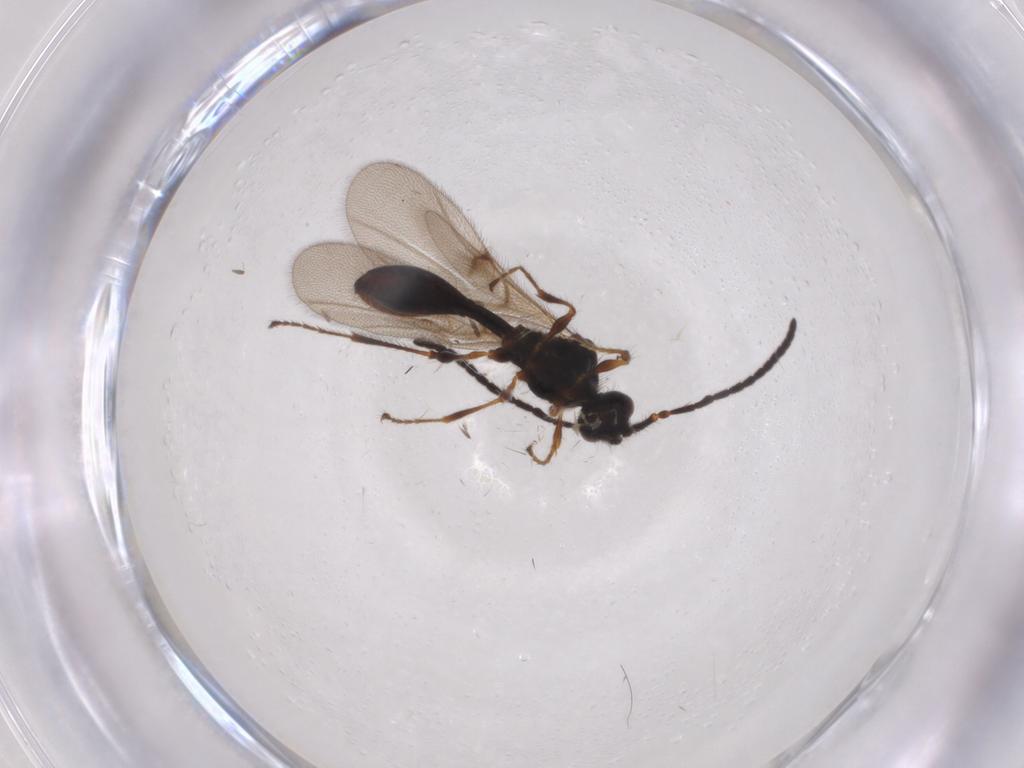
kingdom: Animalia
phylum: Arthropoda
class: Insecta
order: Hymenoptera
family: Diapriidae
